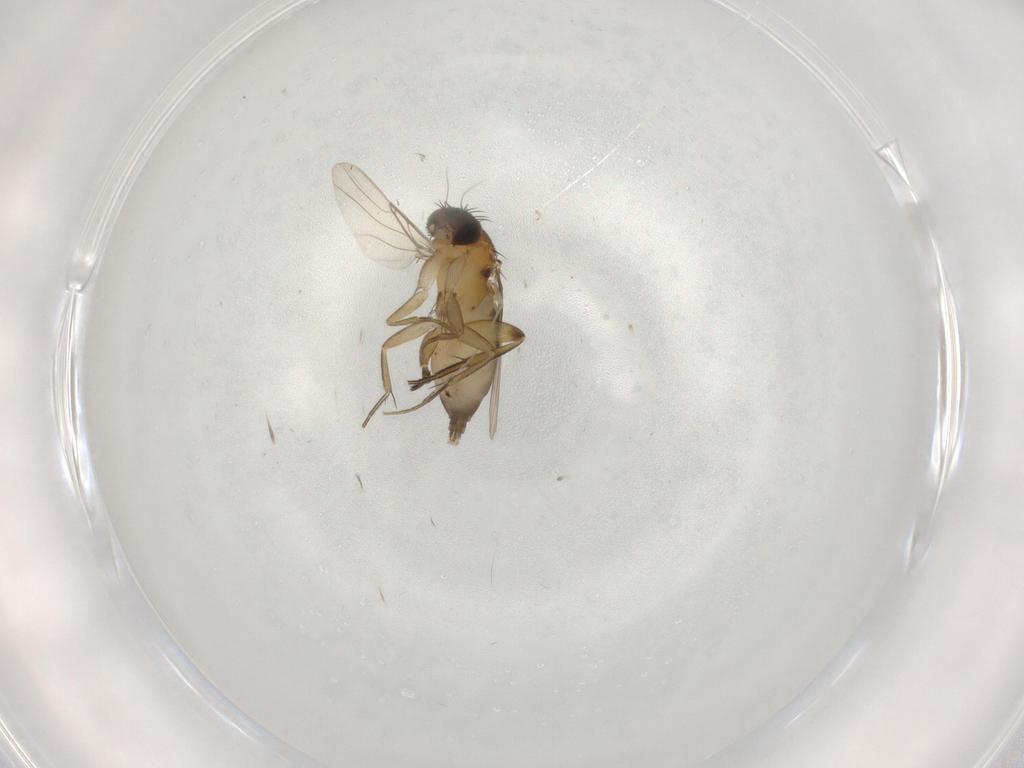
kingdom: Animalia
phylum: Arthropoda
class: Insecta
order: Diptera
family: Phoridae
